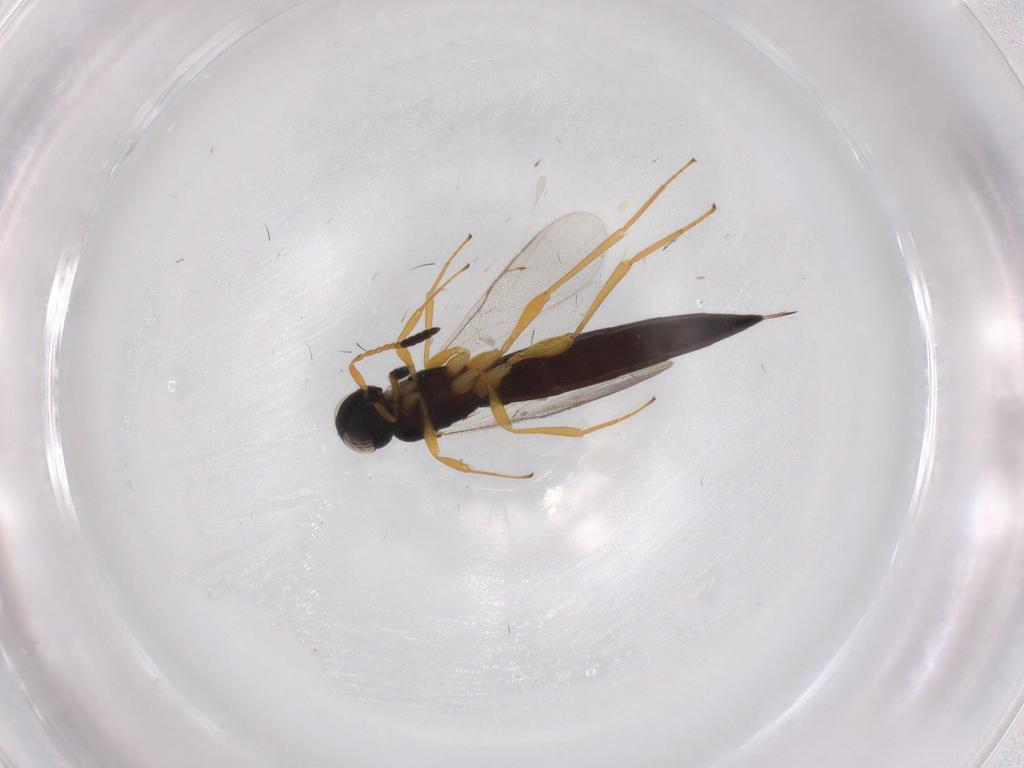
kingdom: Animalia
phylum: Arthropoda
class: Insecta
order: Hymenoptera
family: Scelionidae
